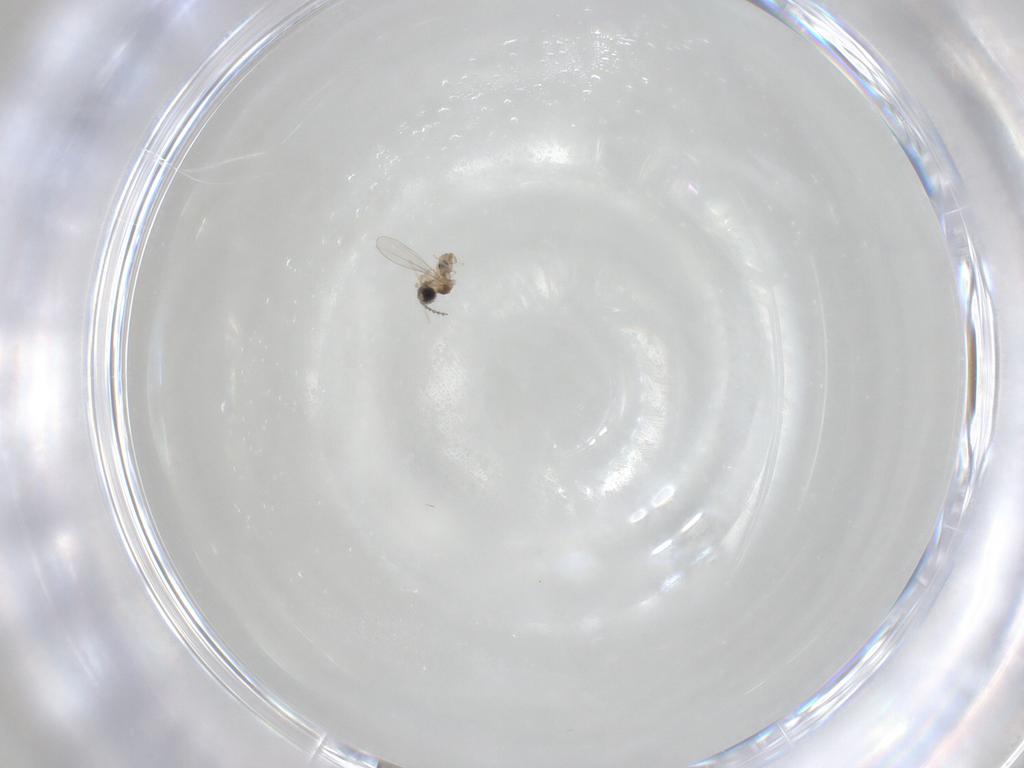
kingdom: Animalia
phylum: Arthropoda
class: Insecta
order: Diptera
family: Cecidomyiidae
